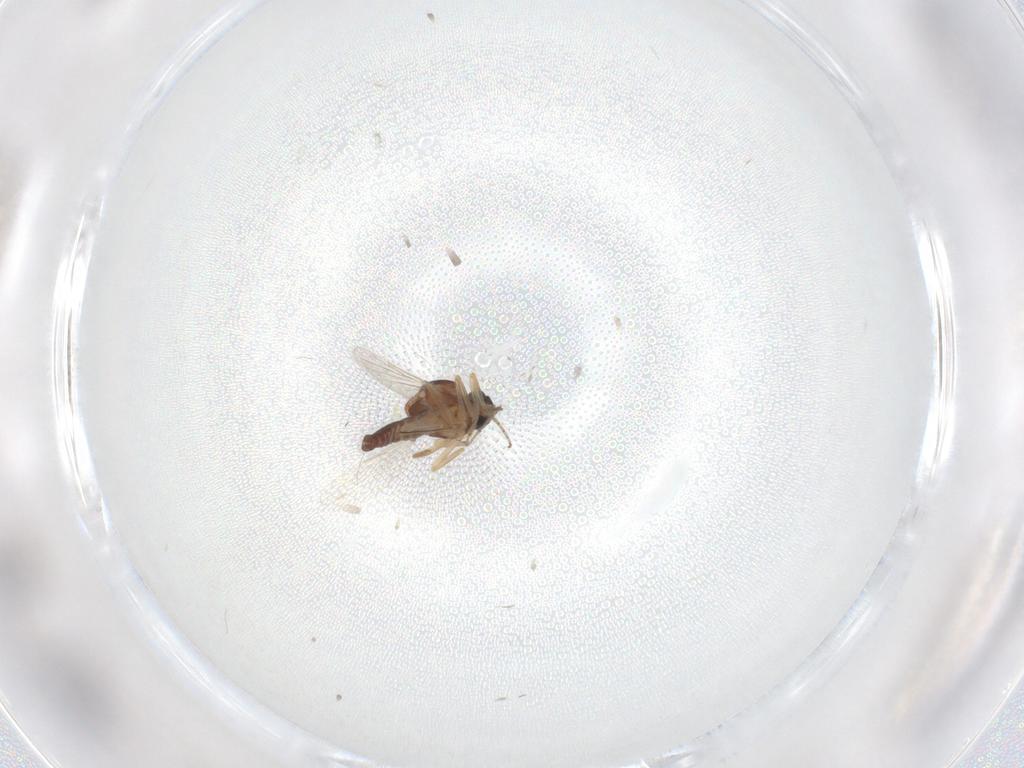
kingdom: Animalia
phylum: Arthropoda
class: Insecta
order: Diptera
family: Ceratopogonidae
